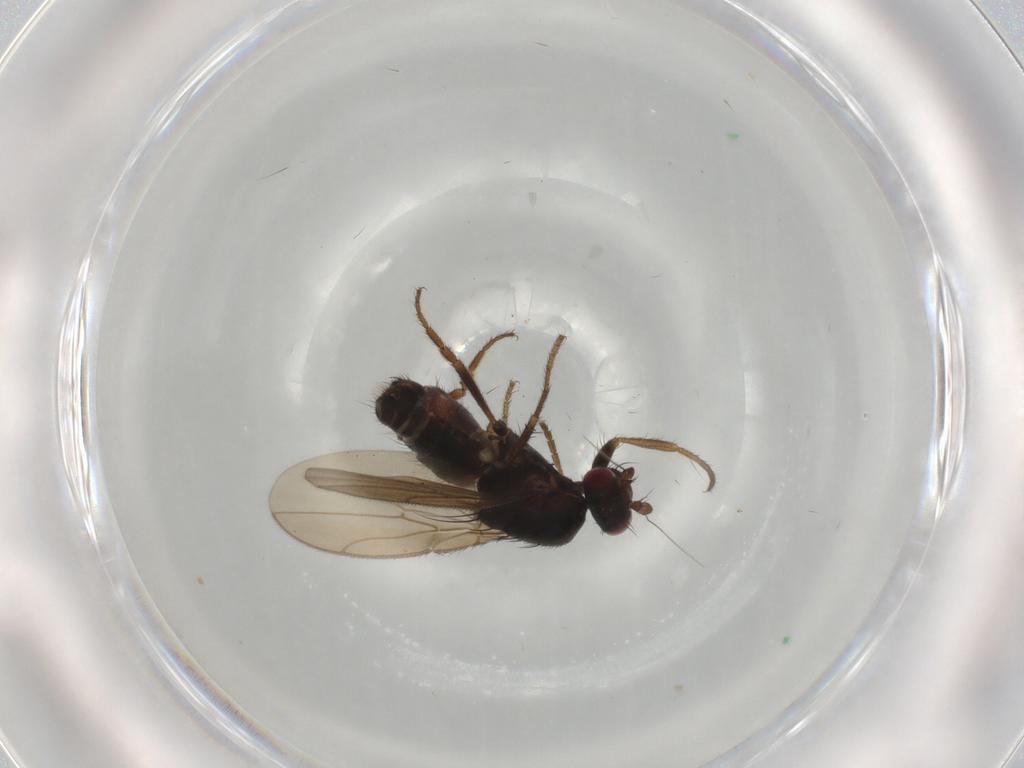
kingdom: Animalia
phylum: Arthropoda
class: Insecta
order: Diptera
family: Sphaeroceridae
